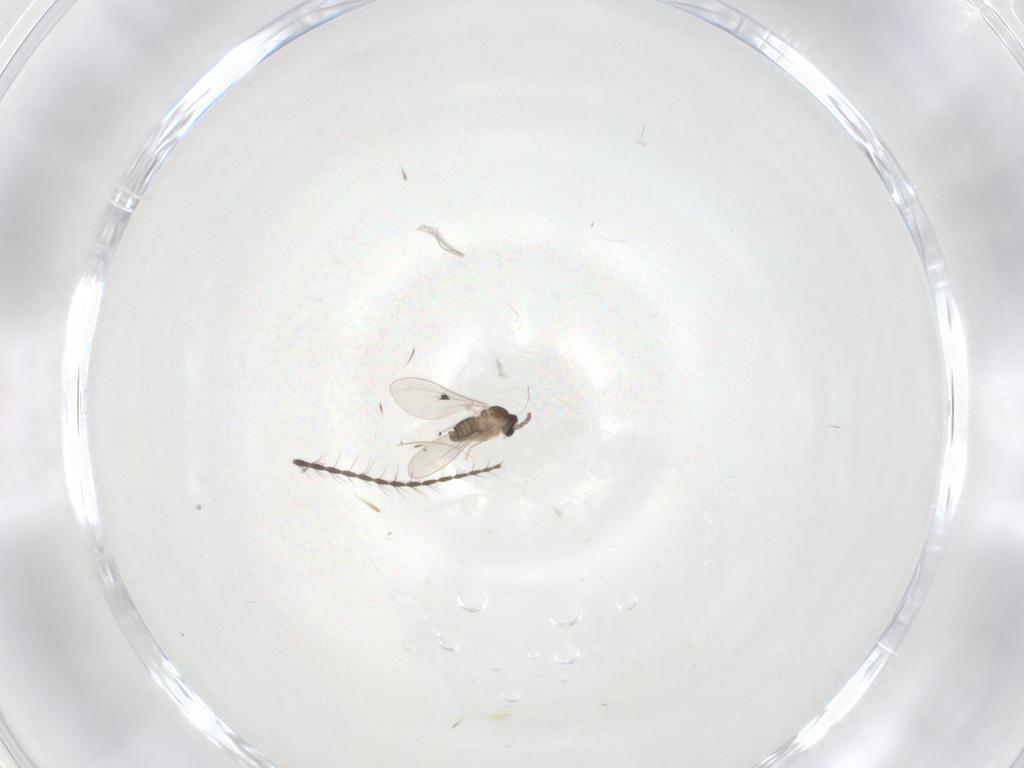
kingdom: Animalia
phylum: Arthropoda
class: Insecta
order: Diptera
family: Cecidomyiidae
